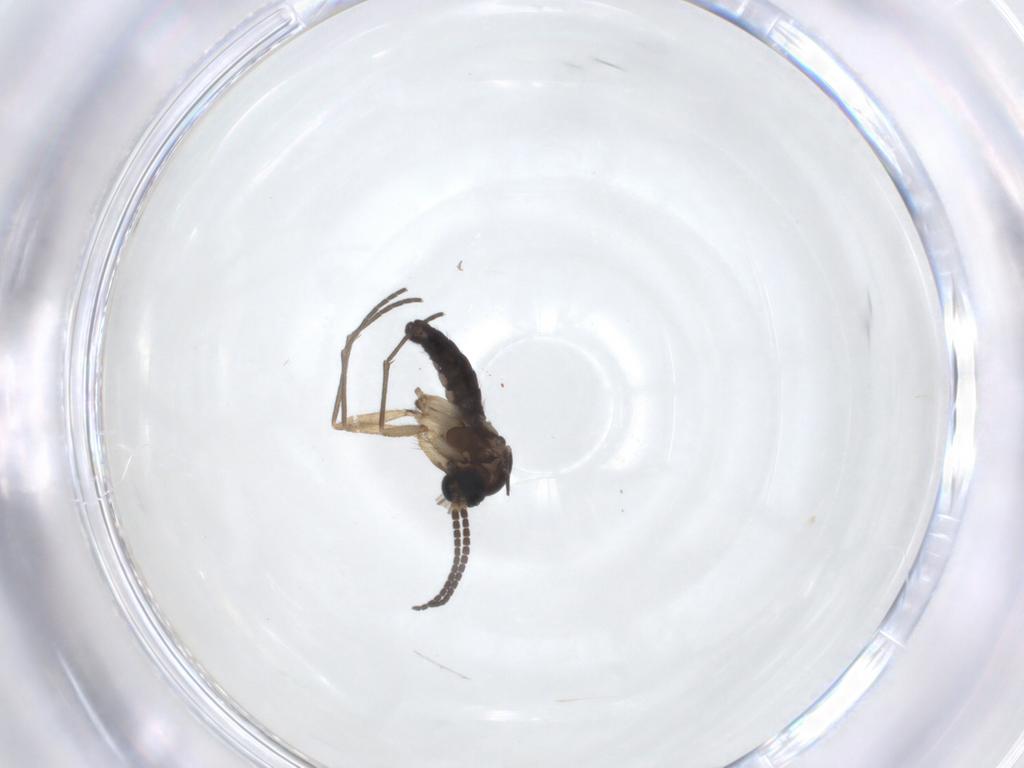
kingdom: Animalia
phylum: Arthropoda
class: Insecta
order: Diptera
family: Sciaridae
